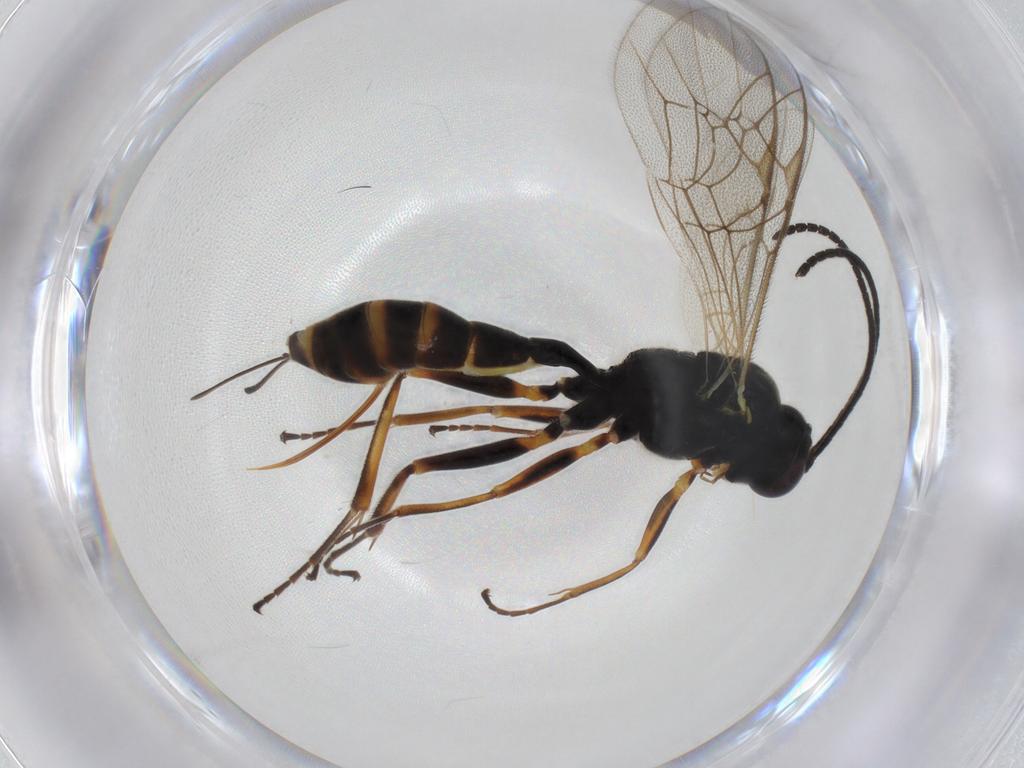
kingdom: Animalia
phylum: Arthropoda
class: Insecta
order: Hymenoptera
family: Ichneumonidae
